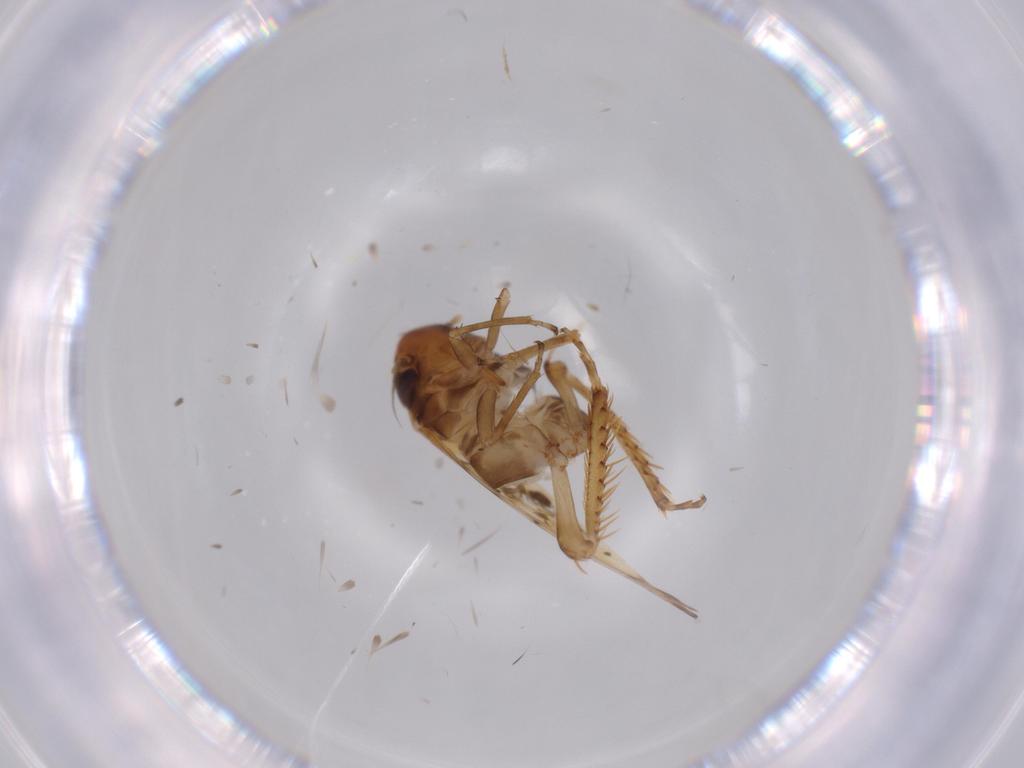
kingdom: Animalia
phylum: Arthropoda
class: Insecta
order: Hemiptera
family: Cicadellidae
